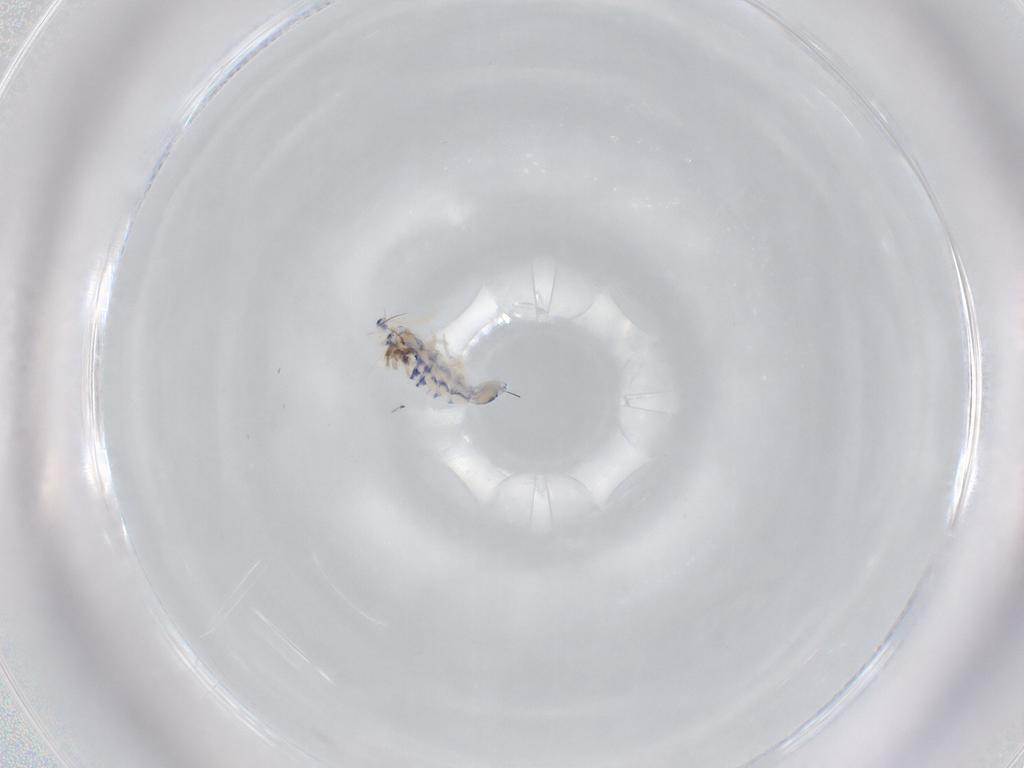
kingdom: Animalia
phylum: Arthropoda
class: Collembola
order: Entomobryomorpha
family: Entomobryidae
